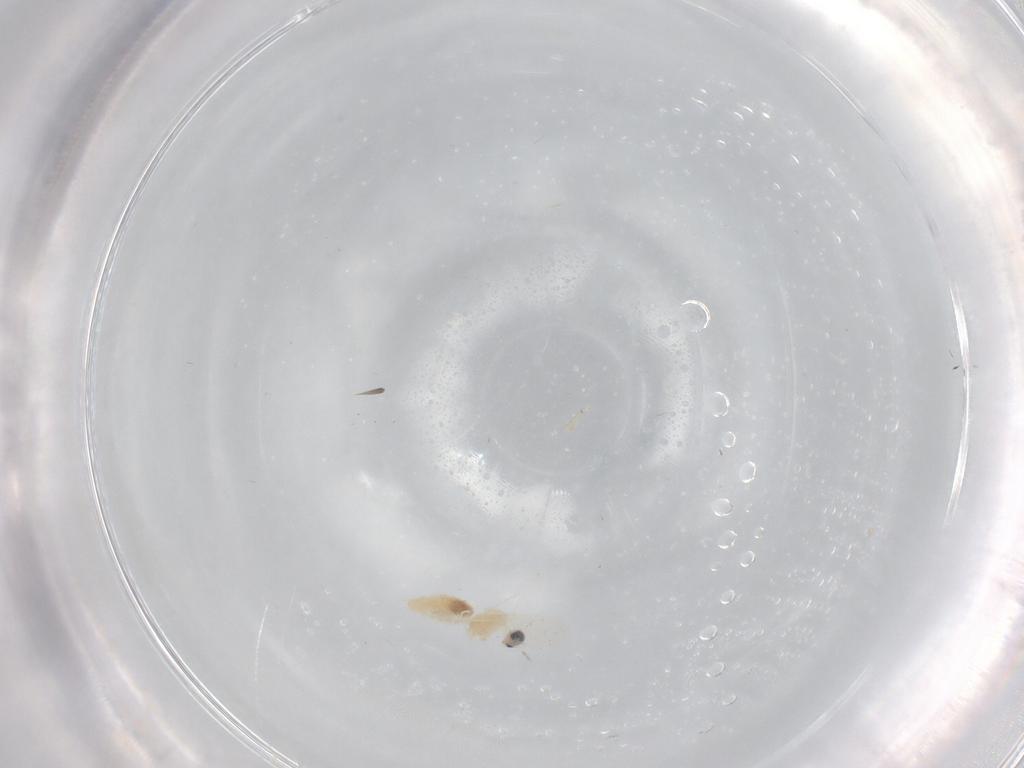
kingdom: Animalia
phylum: Arthropoda
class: Insecta
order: Diptera
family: Cecidomyiidae
